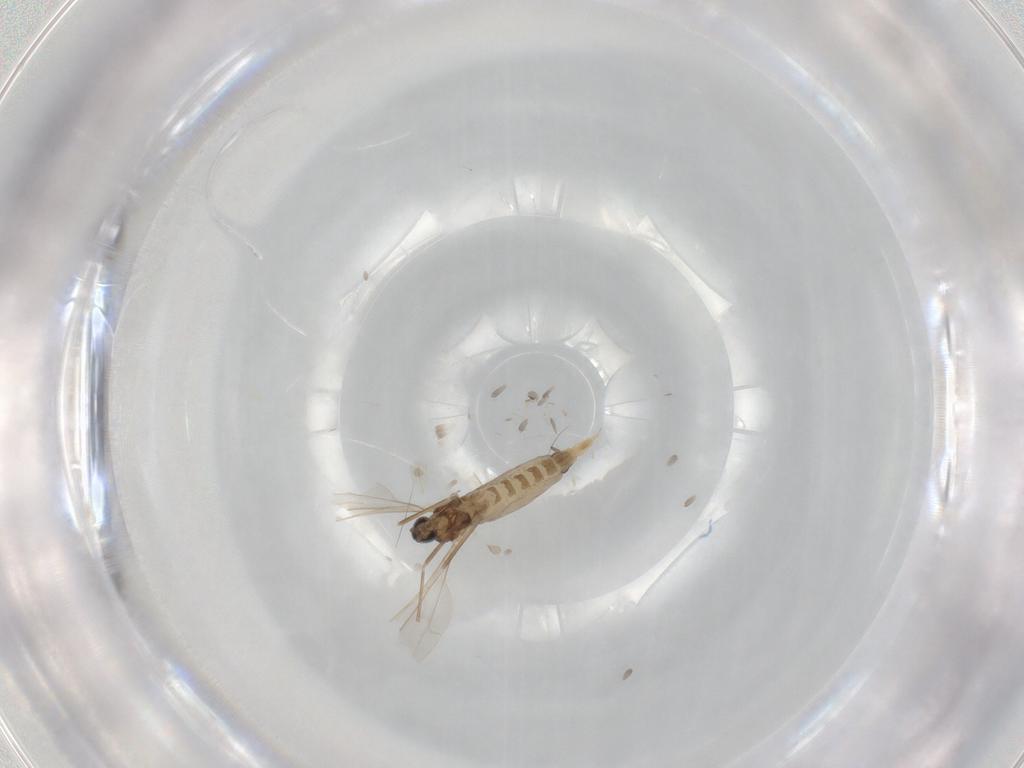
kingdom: Animalia
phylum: Arthropoda
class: Insecta
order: Diptera
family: Cecidomyiidae
